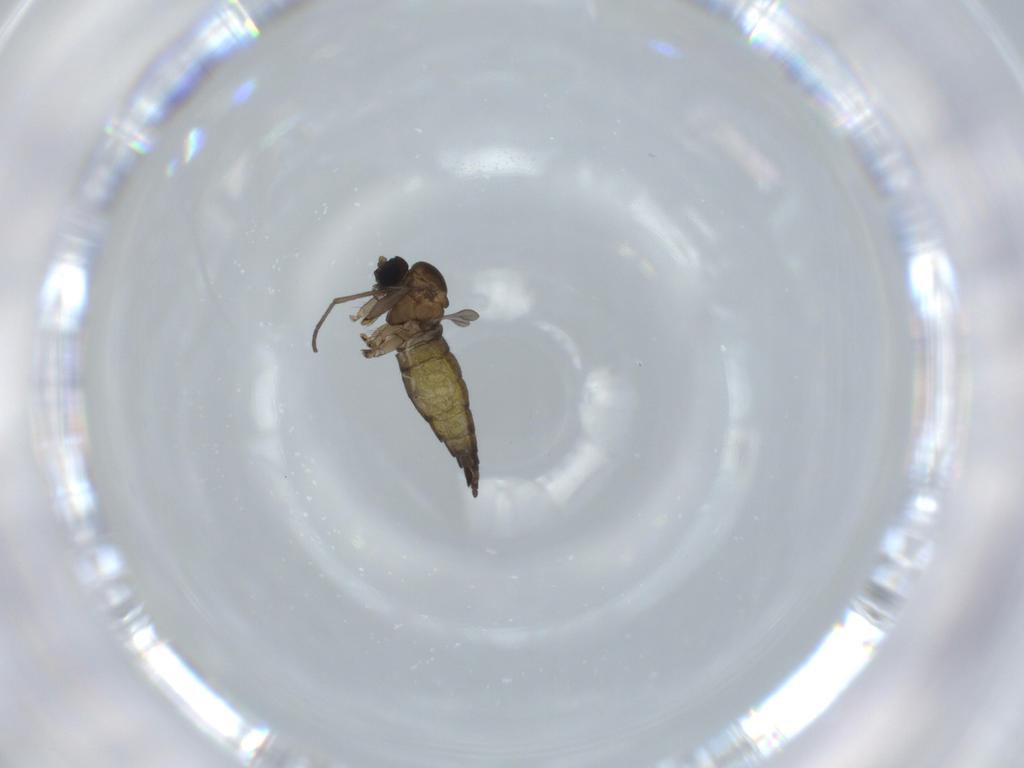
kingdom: Animalia
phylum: Arthropoda
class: Insecta
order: Diptera
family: Sciaridae
